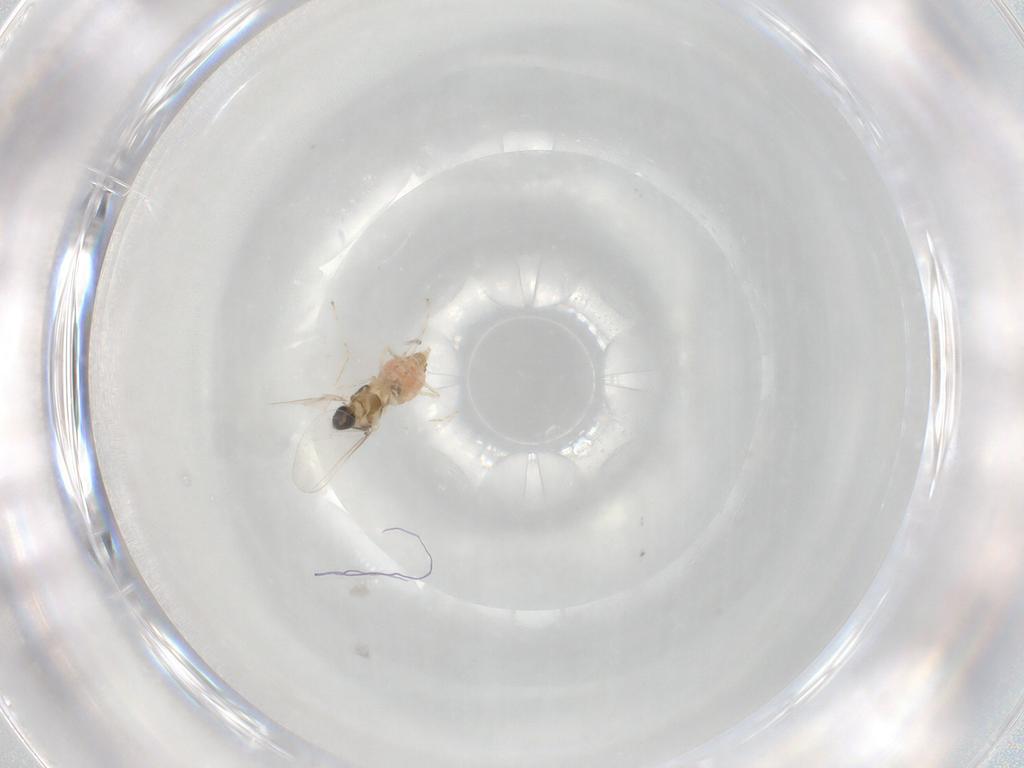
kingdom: Animalia
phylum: Arthropoda
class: Insecta
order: Diptera
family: Cecidomyiidae
